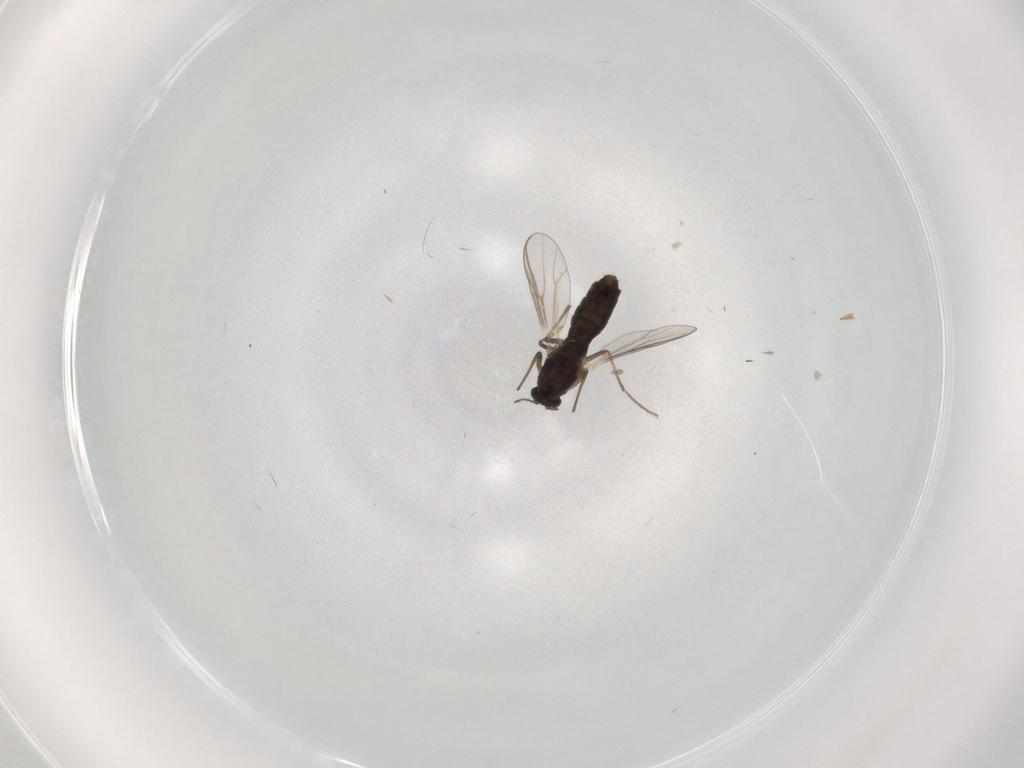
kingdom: Animalia
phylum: Arthropoda
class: Insecta
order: Diptera
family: Chironomidae
